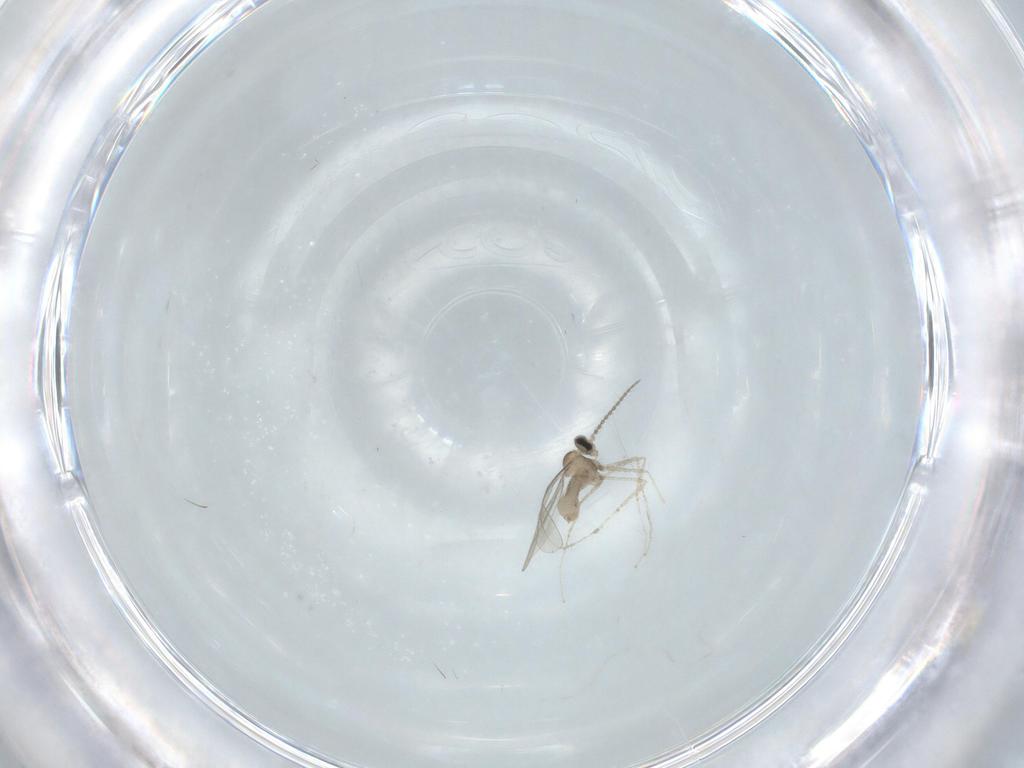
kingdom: Animalia
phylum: Arthropoda
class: Insecta
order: Diptera
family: Cecidomyiidae
